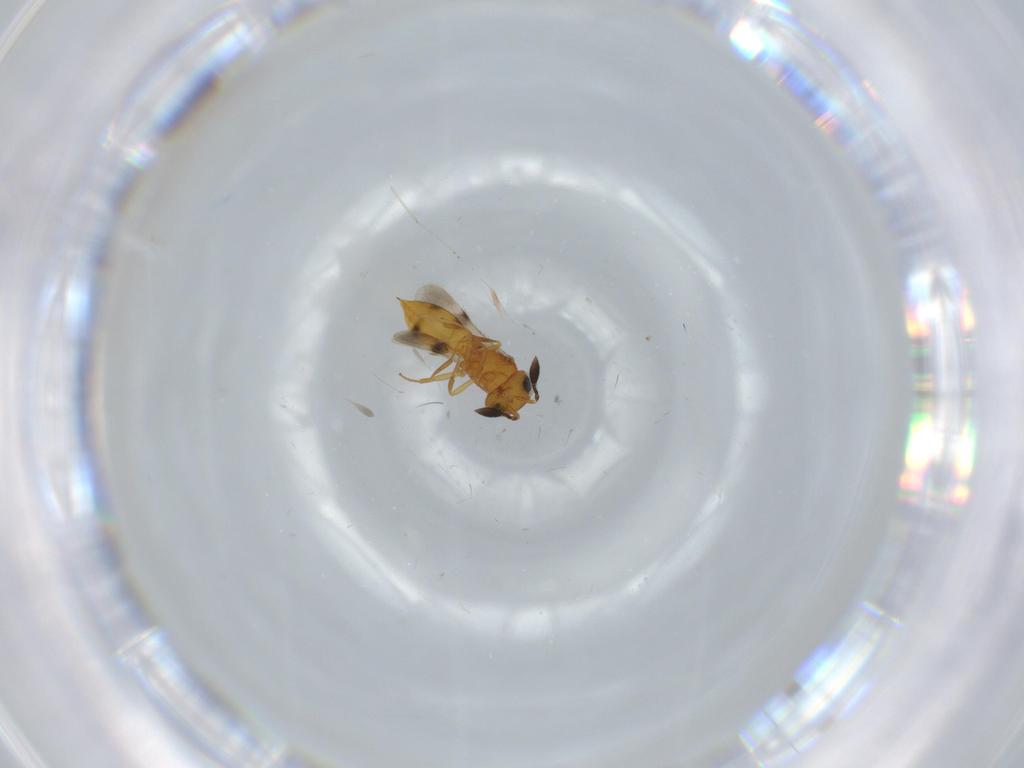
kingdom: Animalia
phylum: Arthropoda
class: Insecta
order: Hymenoptera
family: Scelionidae
